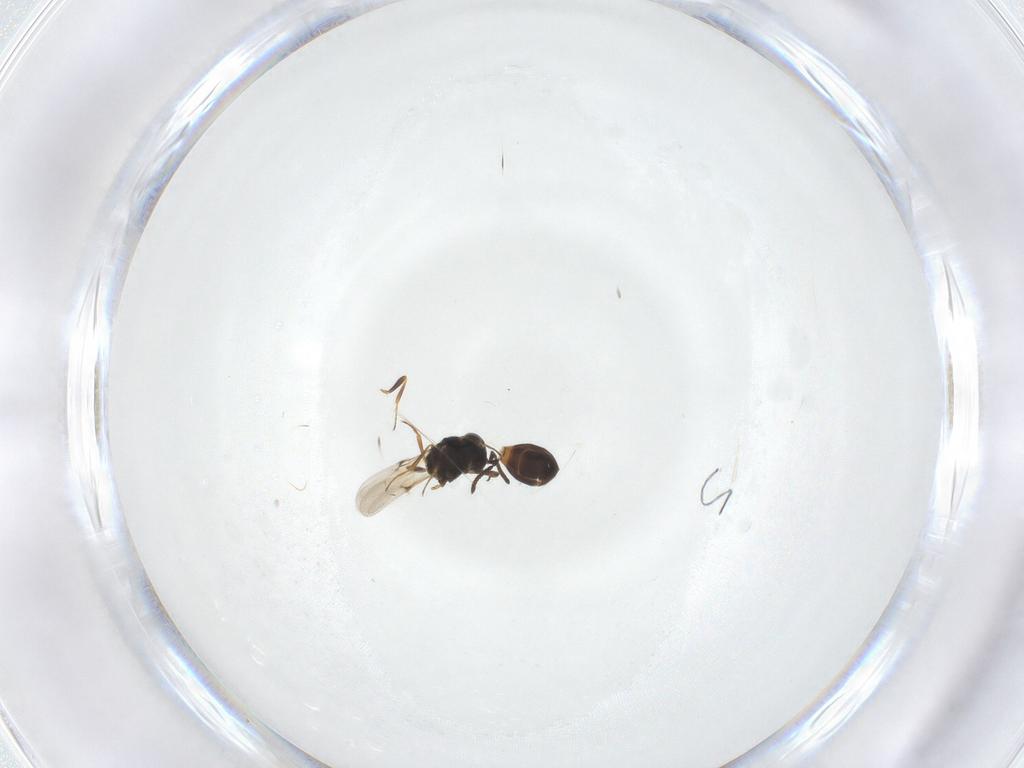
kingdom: Animalia
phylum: Arthropoda
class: Arachnida
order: Araneae
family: Pholcidae
